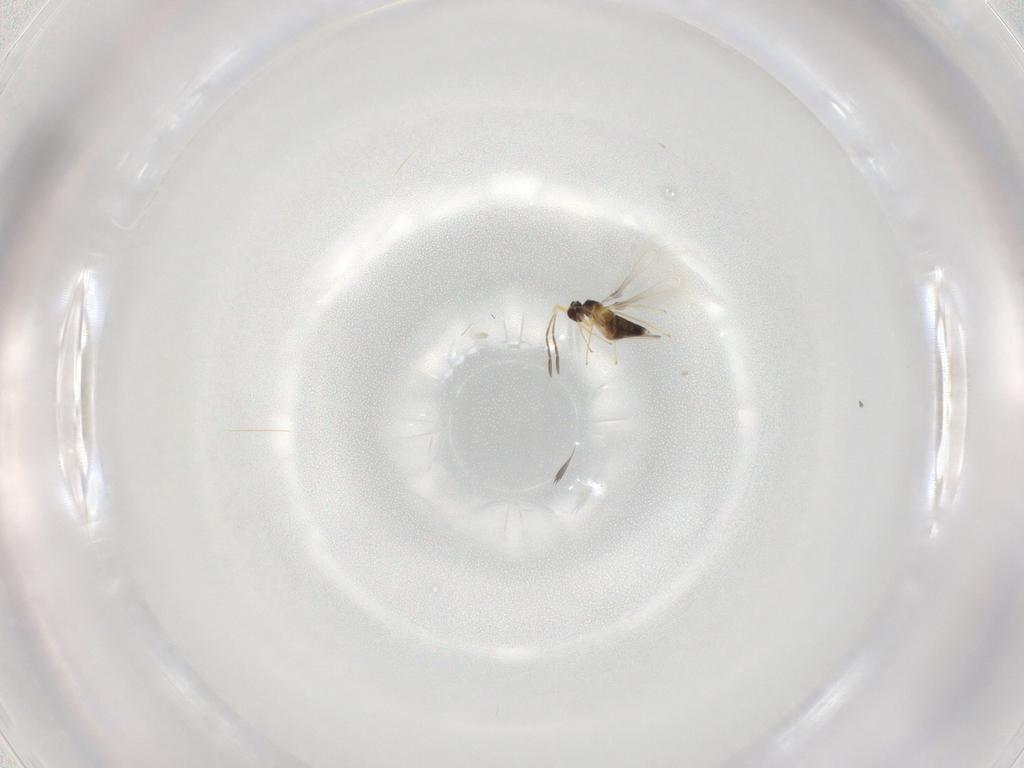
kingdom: Animalia
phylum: Arthropoda
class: Insecta
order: Hymenoptera
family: Mymaridae
